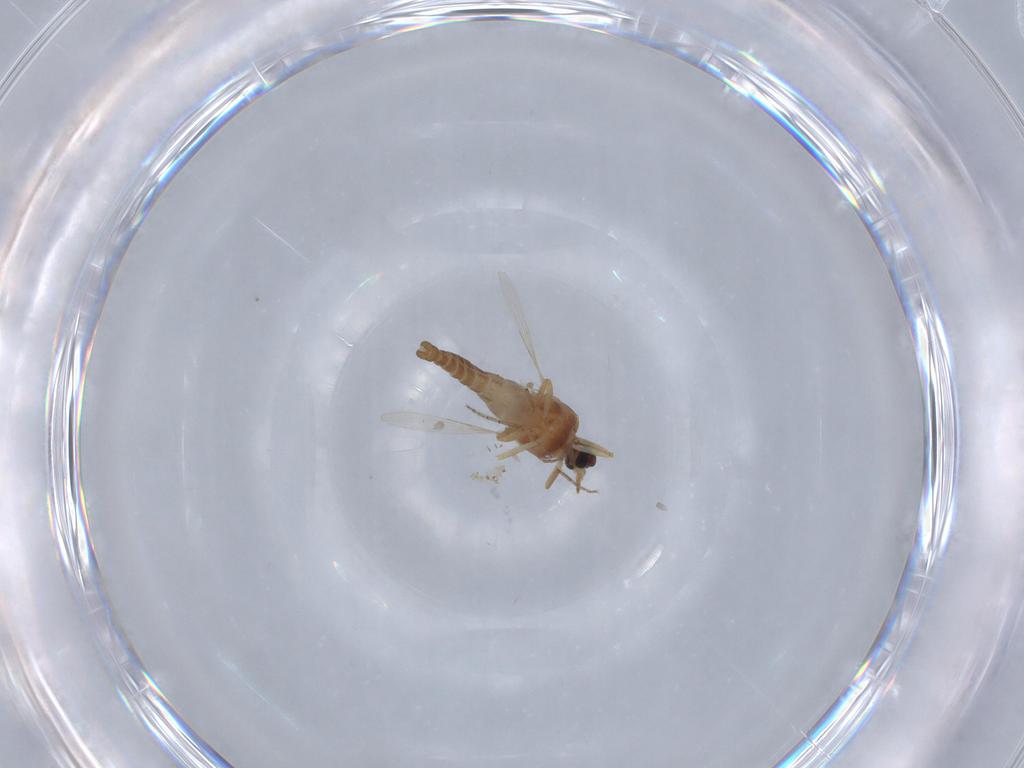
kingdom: Animalia
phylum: Arthropoda
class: Insecta
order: Diptera
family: Ceratopogonidae
